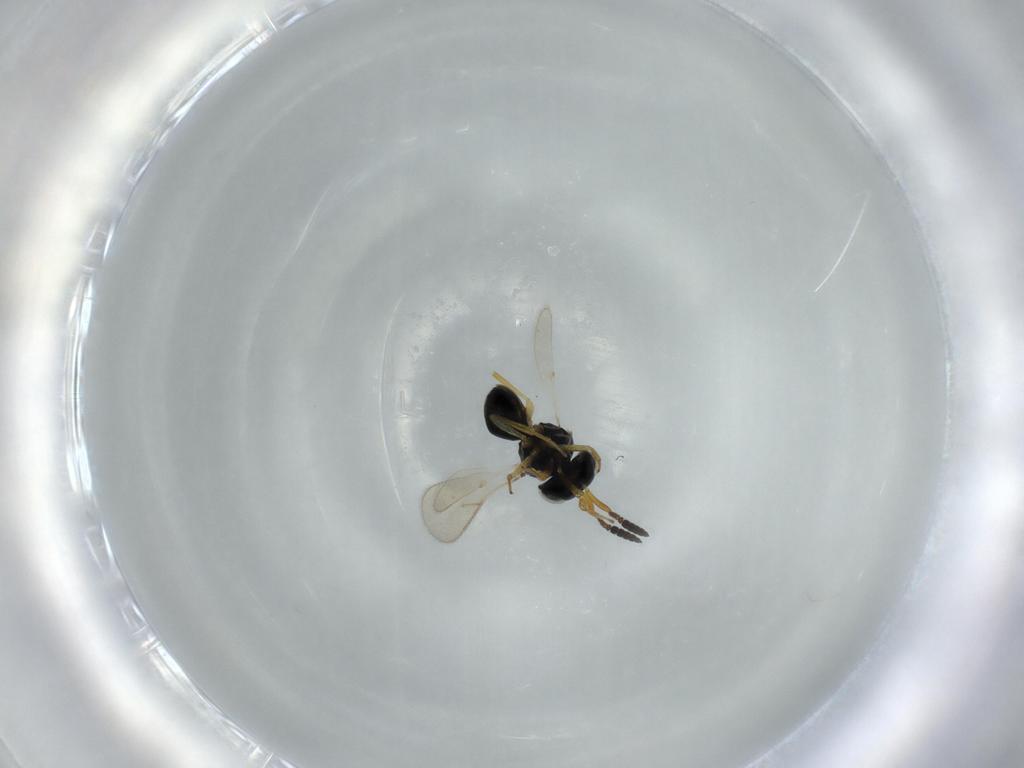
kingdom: Animalia
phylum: Arthropoda
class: Insecta
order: Hymenoptera
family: Scelionidae
